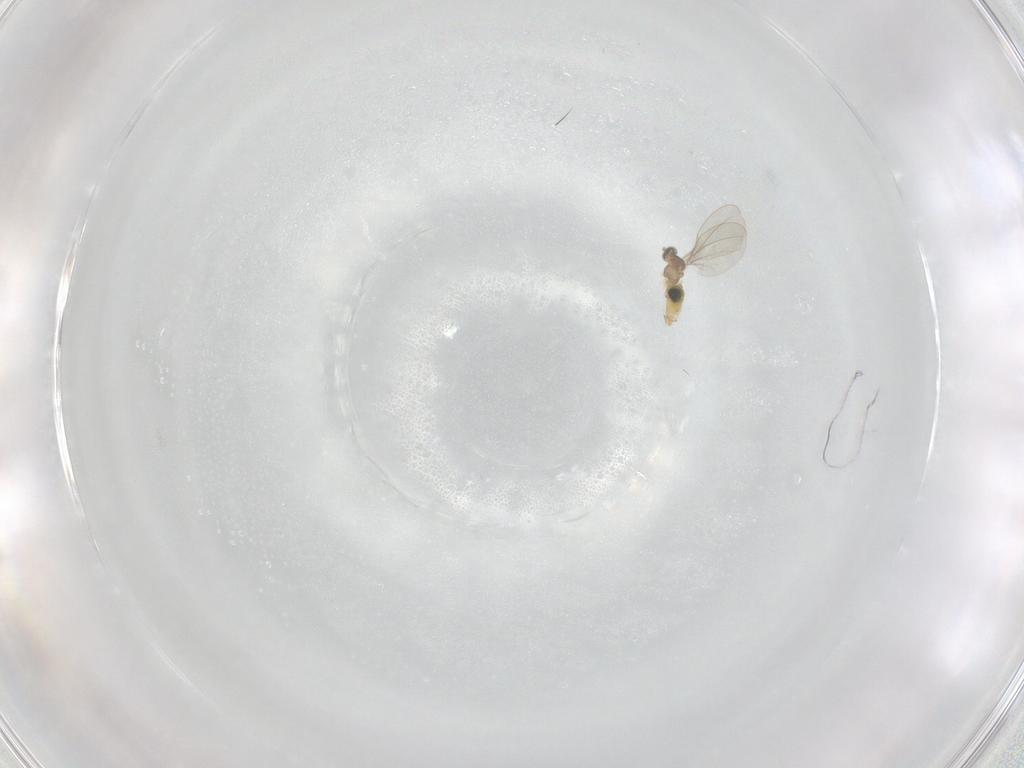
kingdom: Animalia
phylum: Arthropoda
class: Insecta
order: Diptera
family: Cecidomyiidae
